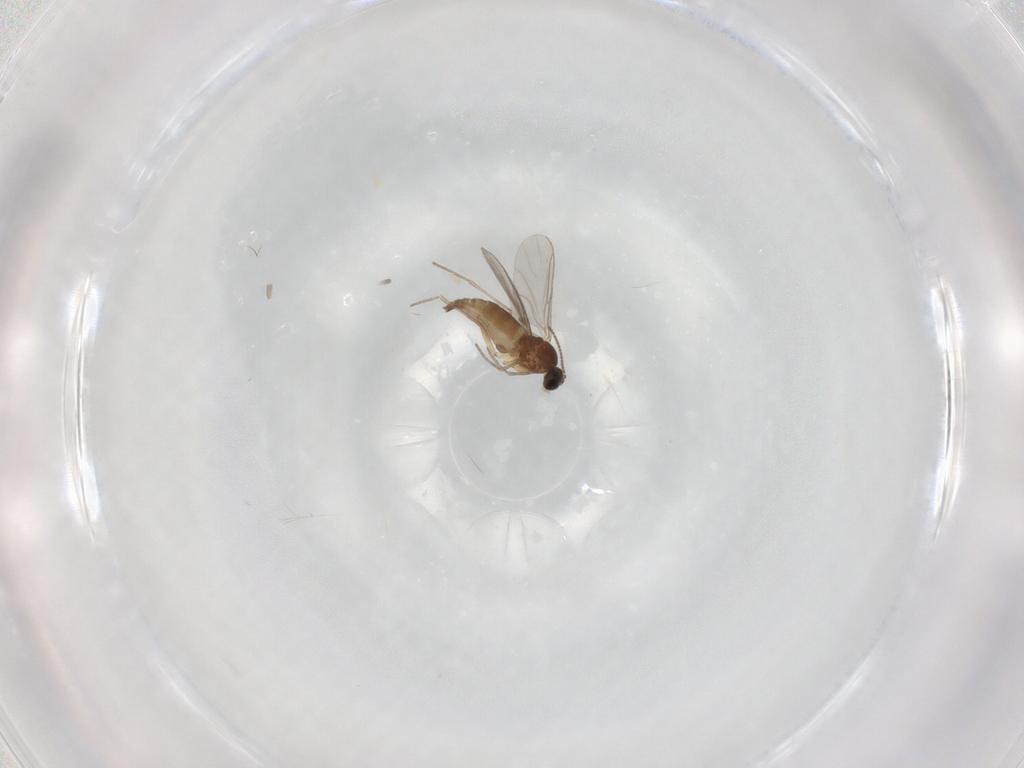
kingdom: Animalia
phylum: Arthropoda
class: Insecta
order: Diptera
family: Sciaridae
